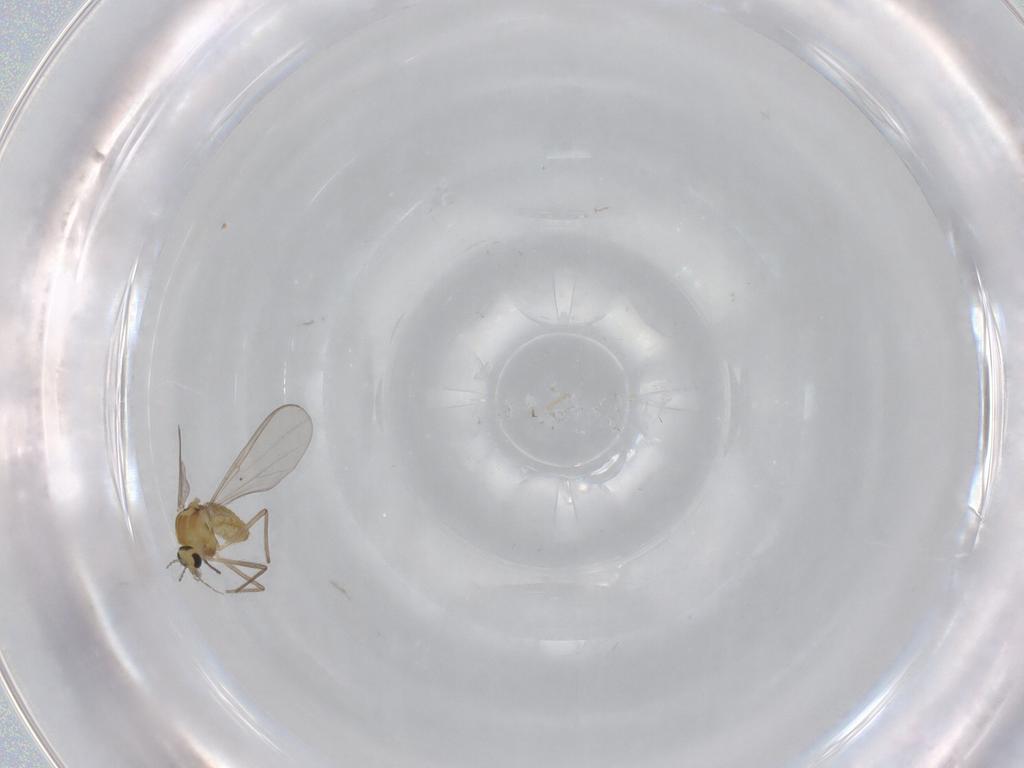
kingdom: Animalia
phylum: Arthropoda
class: Insecta
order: Diptera
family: Chironomidae
